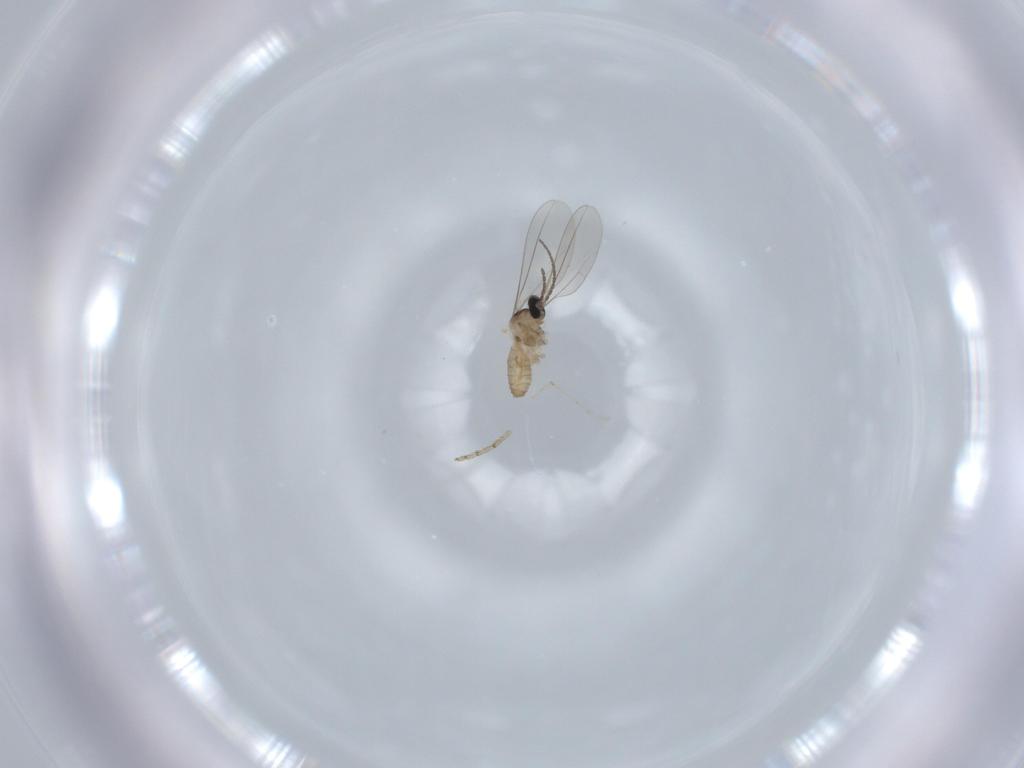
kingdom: Animalia
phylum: Arthropoda
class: Insecta
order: Diptera
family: Cecidomyiidae
